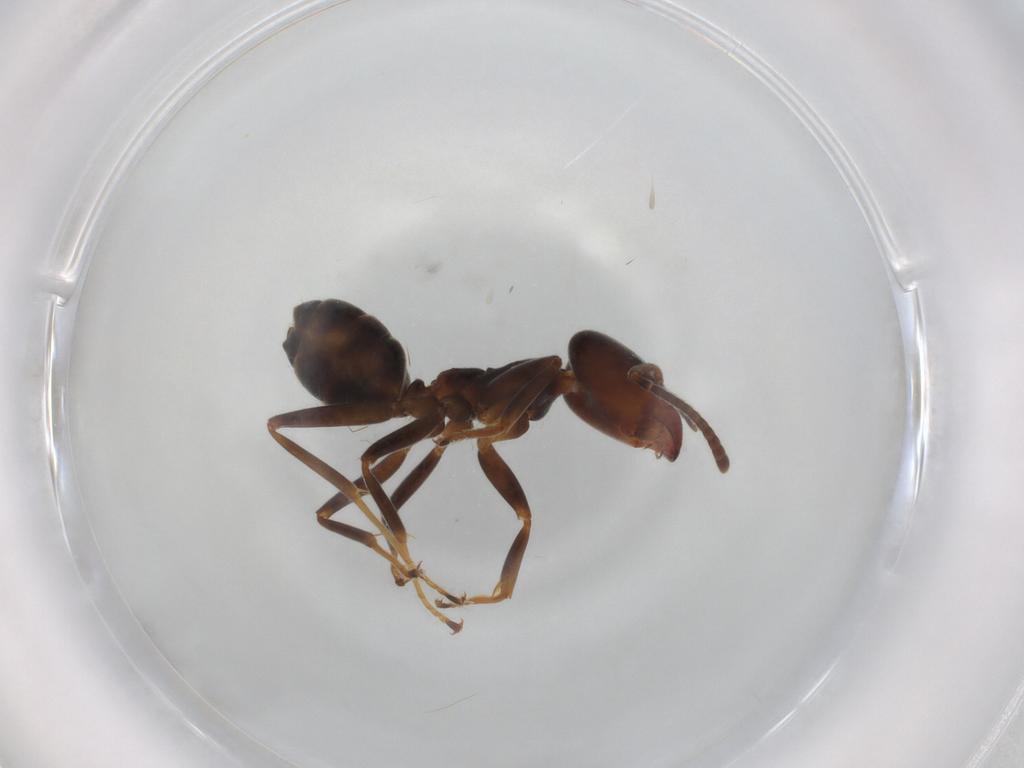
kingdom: Animalia
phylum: Arthropoda
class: Insecta
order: Hymenoptera
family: Formicidae
